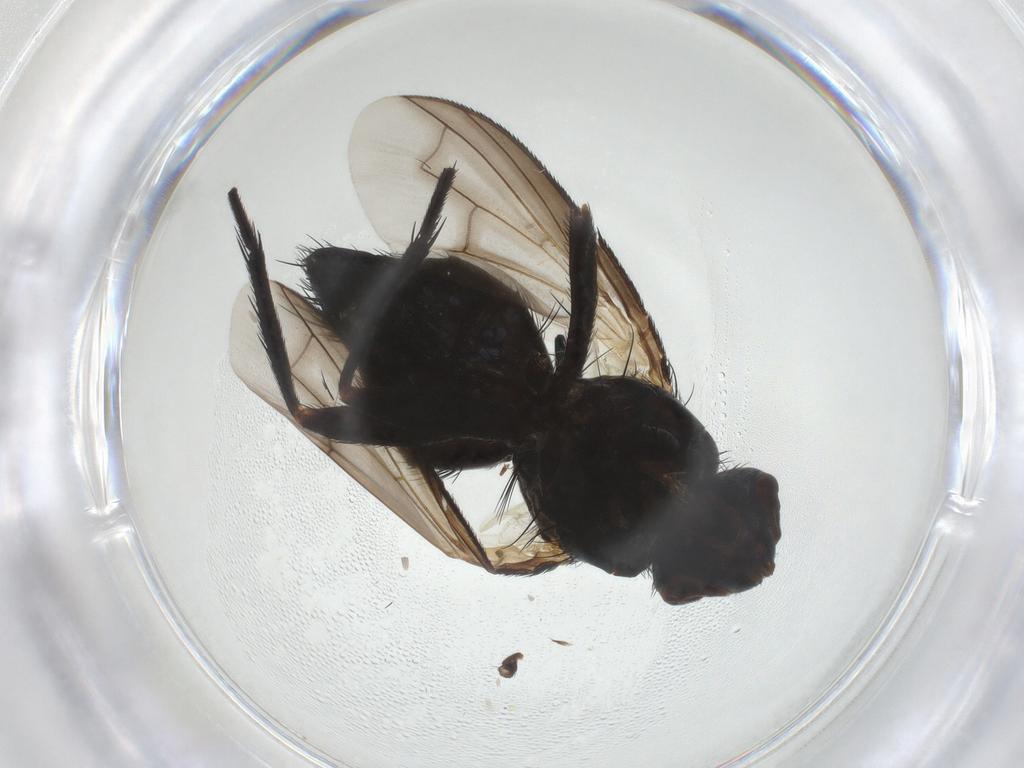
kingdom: Animalia
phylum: Arthropoda
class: Insecta
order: Diptera
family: Tachinidae
